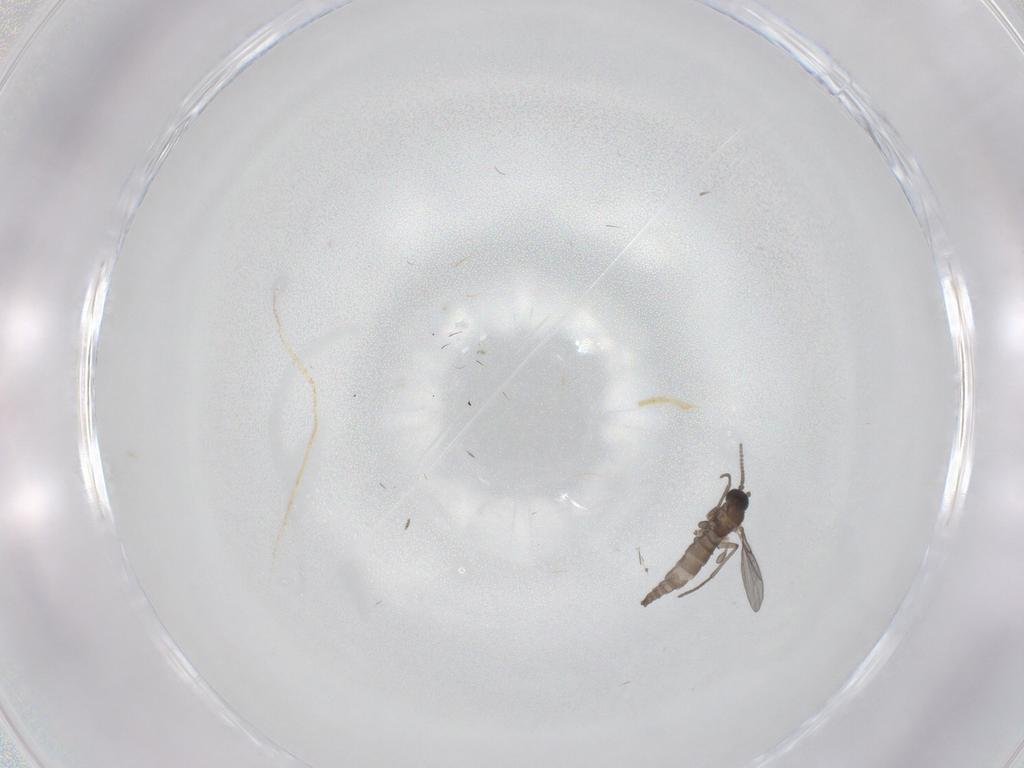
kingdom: Animalia
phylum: Arthropoda
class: Insecta
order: Diptera
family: Sciaridae
